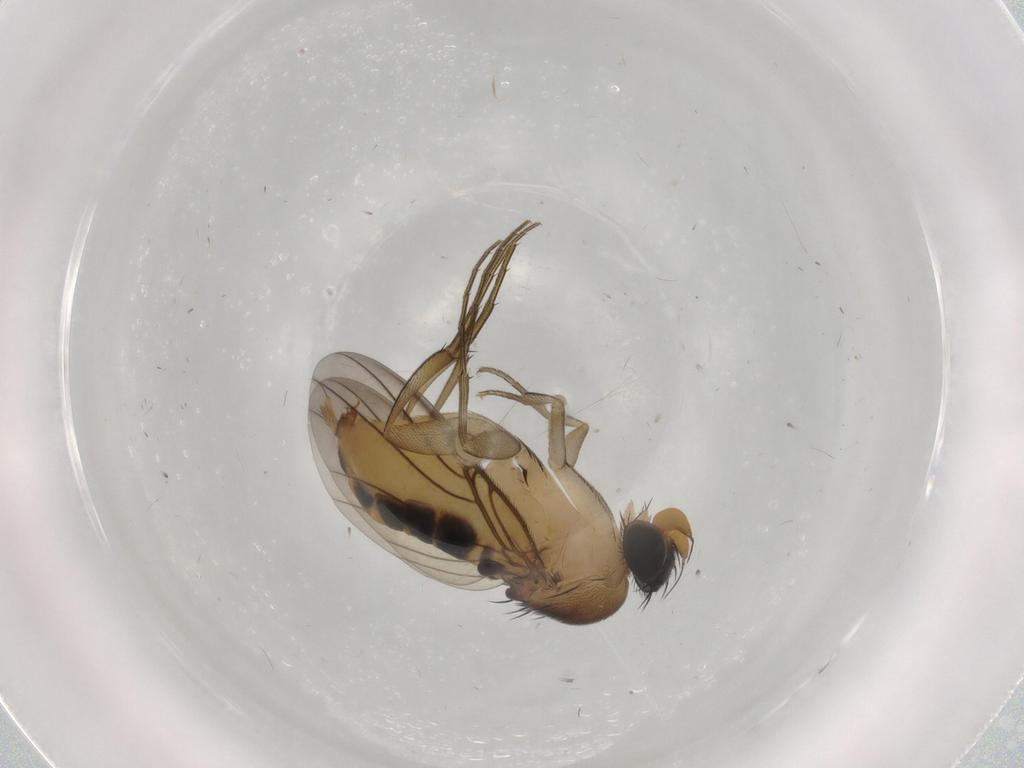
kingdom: Animalia
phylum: Arthropoda
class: Insecta
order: Diptera
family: Phoridae
